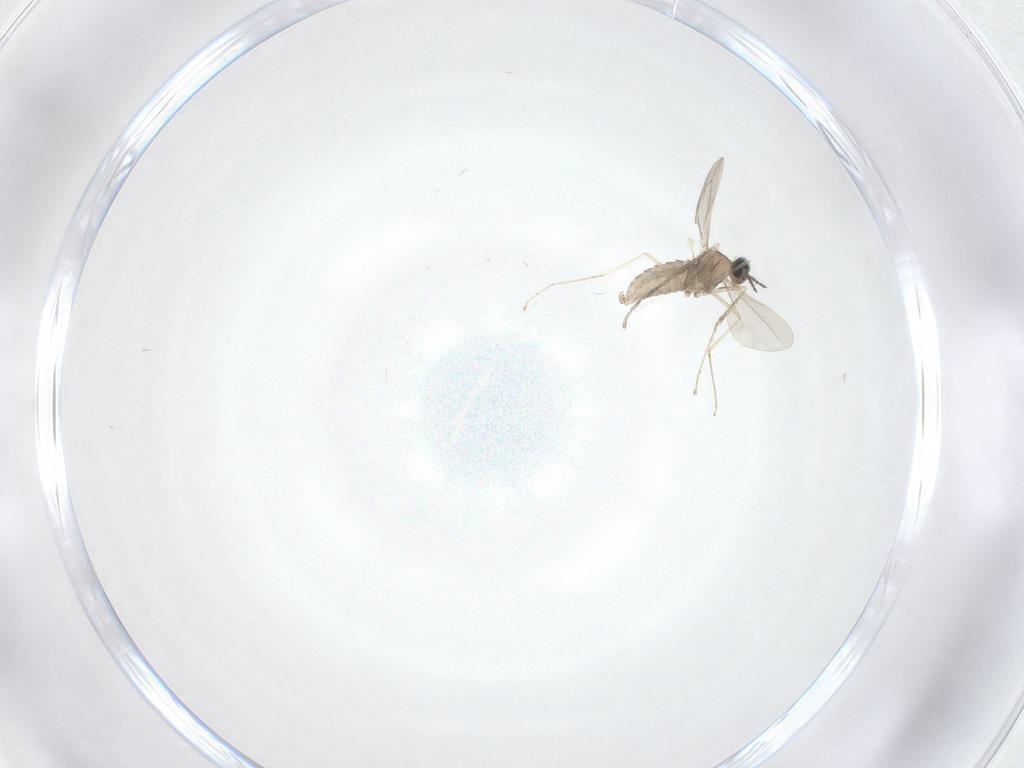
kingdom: Animalia
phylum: Arthropoda
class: Insecta
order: Diptera
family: Cecidomyiidae
